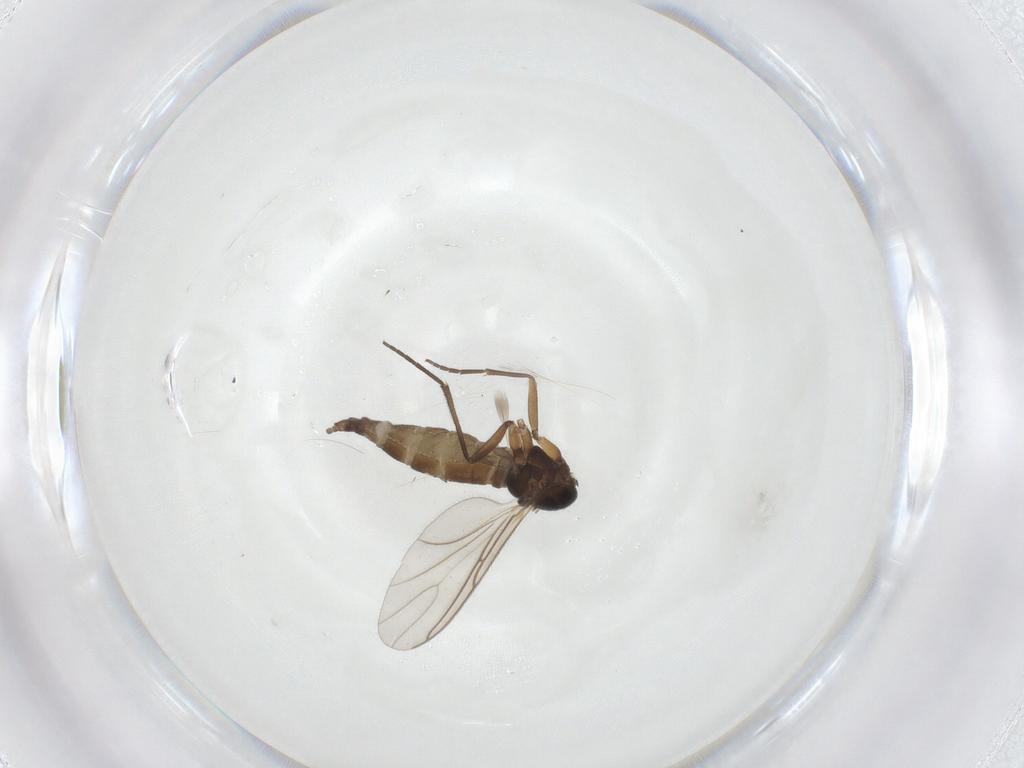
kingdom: Animalia
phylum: Arthropoda
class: Insecta
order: Diptera
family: Sciaridae
